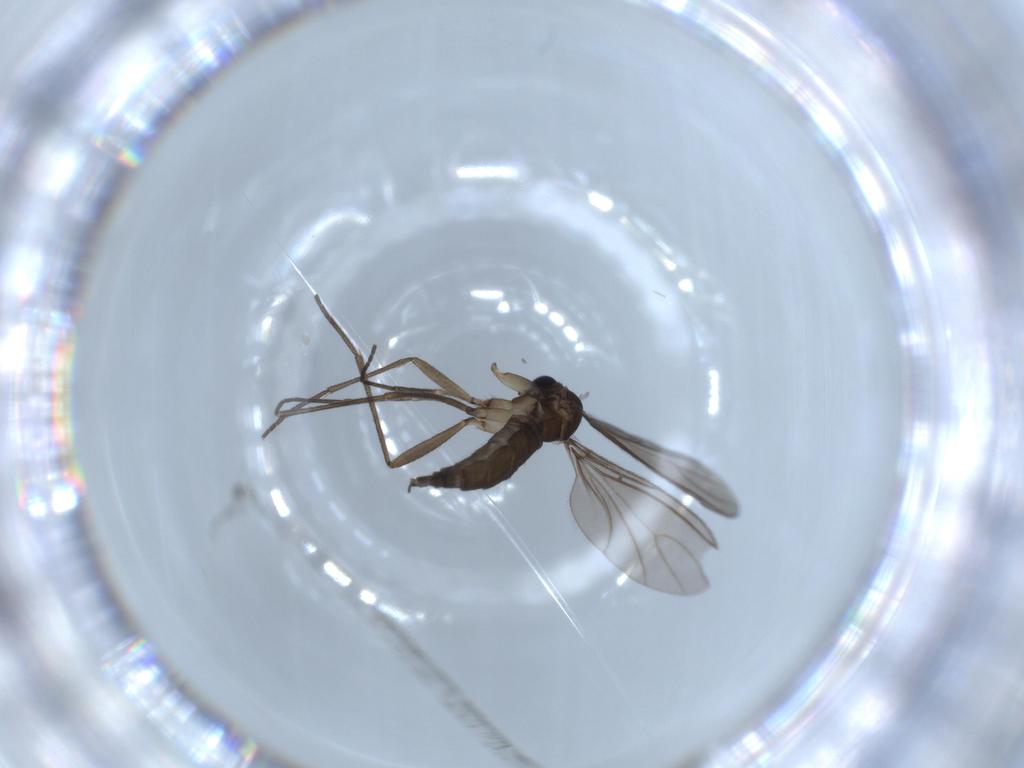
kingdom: Animalia
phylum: Arthropoda
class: Insecta
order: Diptera
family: Sciaridae
